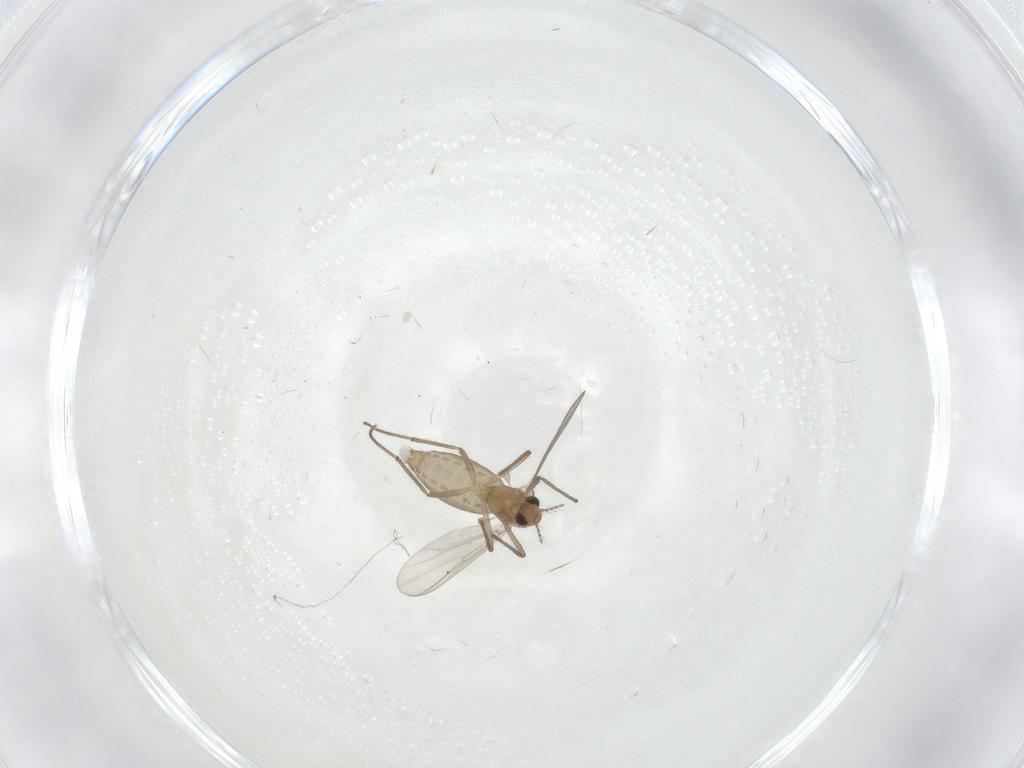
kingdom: Animalia
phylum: Arthropoda
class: Insecta
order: Diptera
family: Chironomidae
